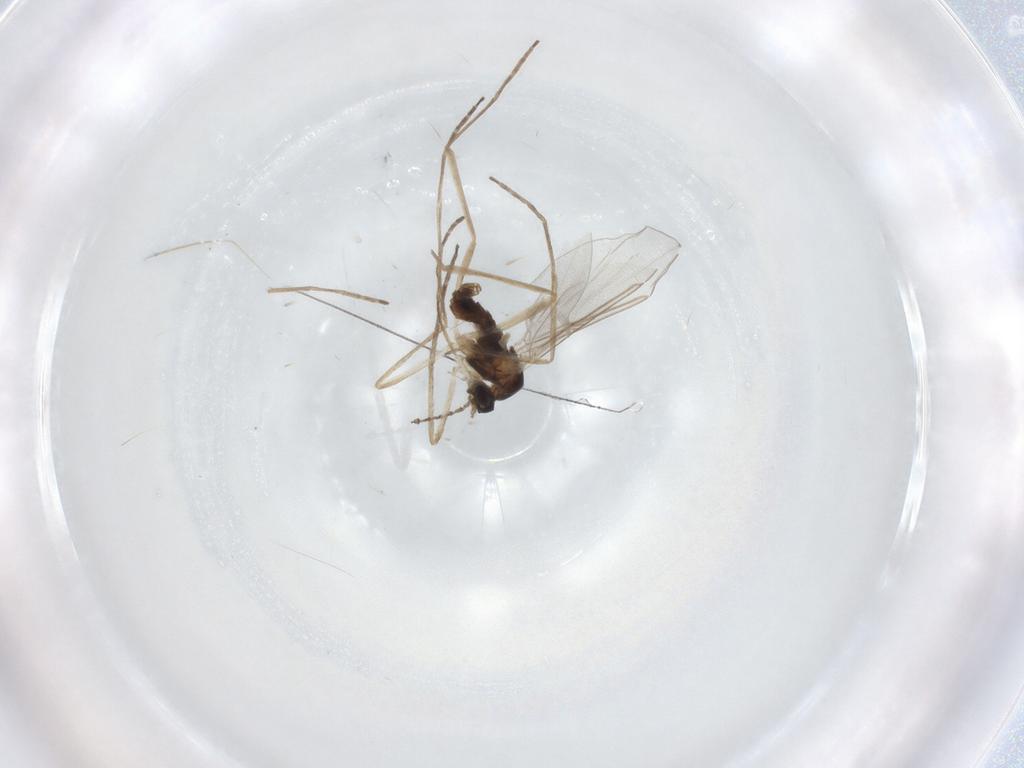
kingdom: Animalia
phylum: Arthropoda
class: Insecta
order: Diptera
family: Cecidomyiidae
